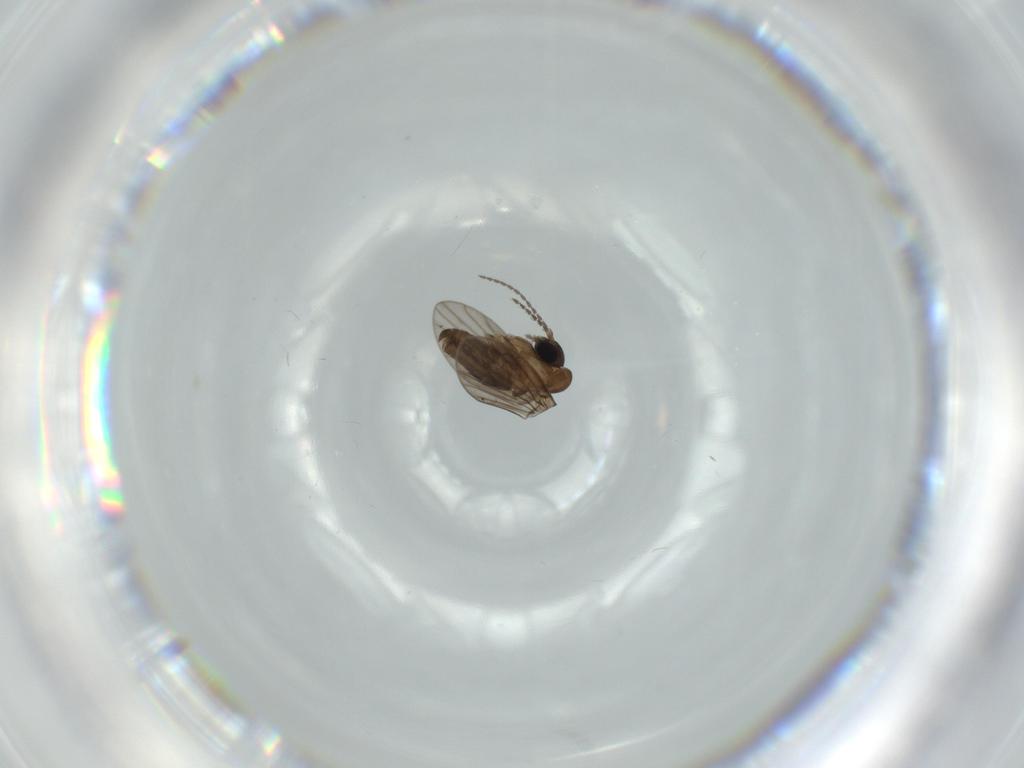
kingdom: Animalia
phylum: Arthropoda
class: Insecta
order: Diptera
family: Psychodidae
